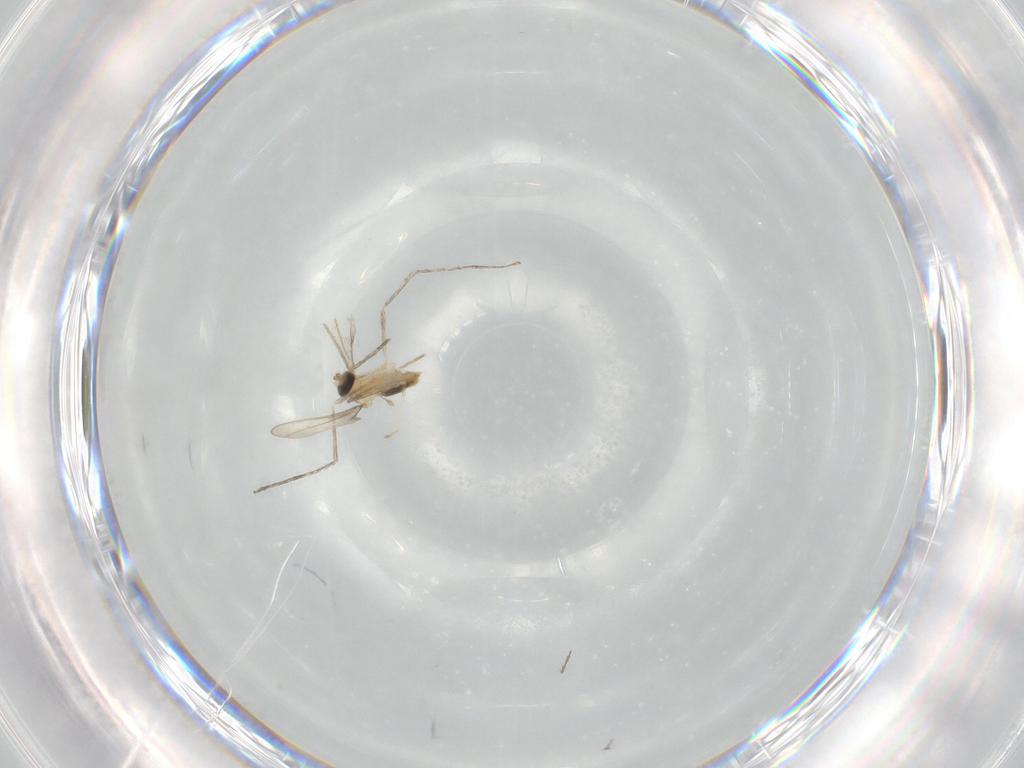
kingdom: Animalia
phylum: Arthropoda
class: Insecta
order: Diptera
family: Cecidomyiidae
